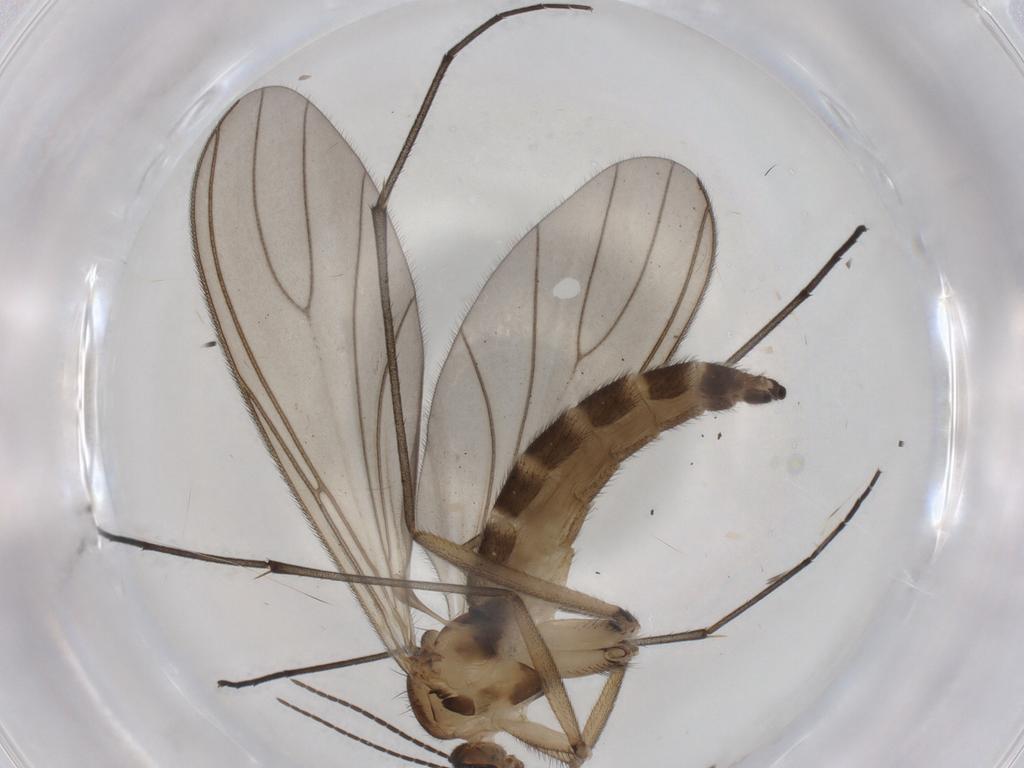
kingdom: Animalia
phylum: Arthropoda
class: Insecta
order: Diptera
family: Sciaridae
